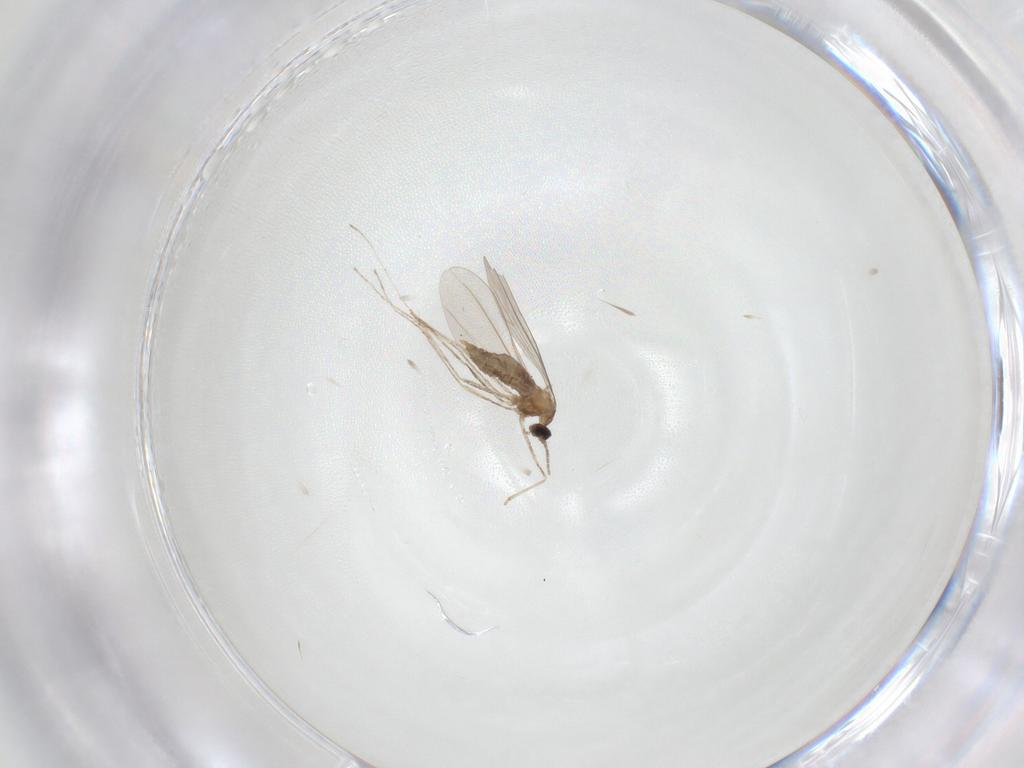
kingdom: Animalia
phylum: Arthropoda
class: Insecta
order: Diptera
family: Cecidomyiidae
